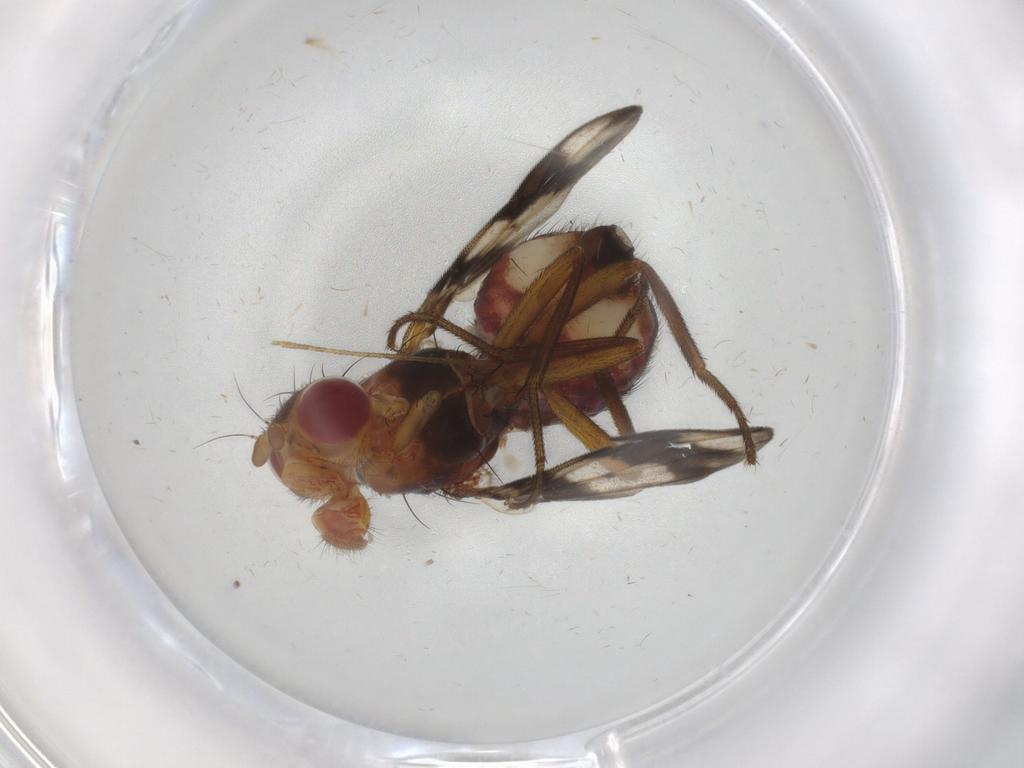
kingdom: Animalia
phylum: Arthropoda
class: Insecta
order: Diptera
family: Richardiidae
